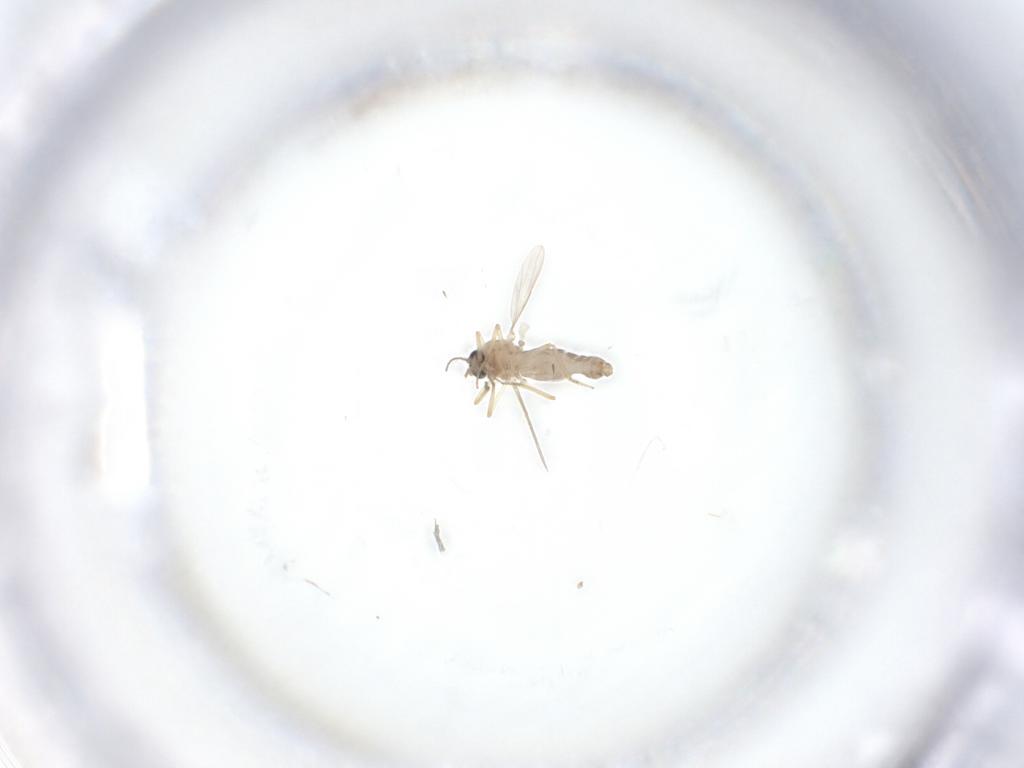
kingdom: Animalia
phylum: Arthropoda
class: Insecta
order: Diptera
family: Ceratopogonidae
